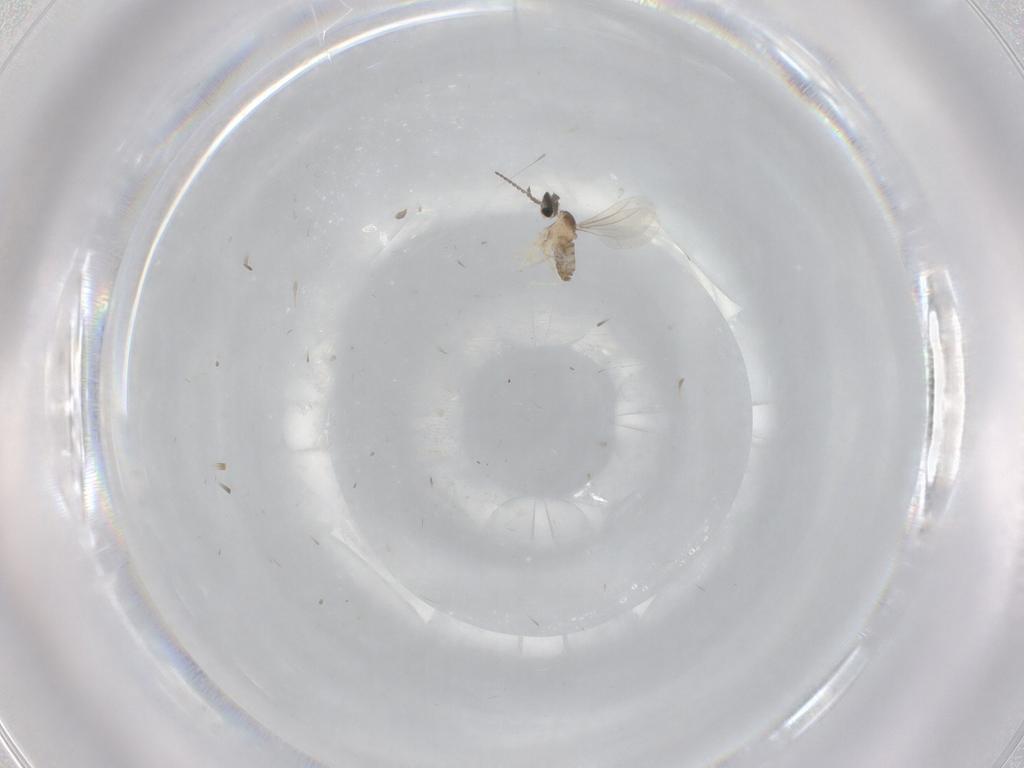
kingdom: Animalia
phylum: Arthropoda
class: Insecta
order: Diptera
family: Cecidomyiidae
